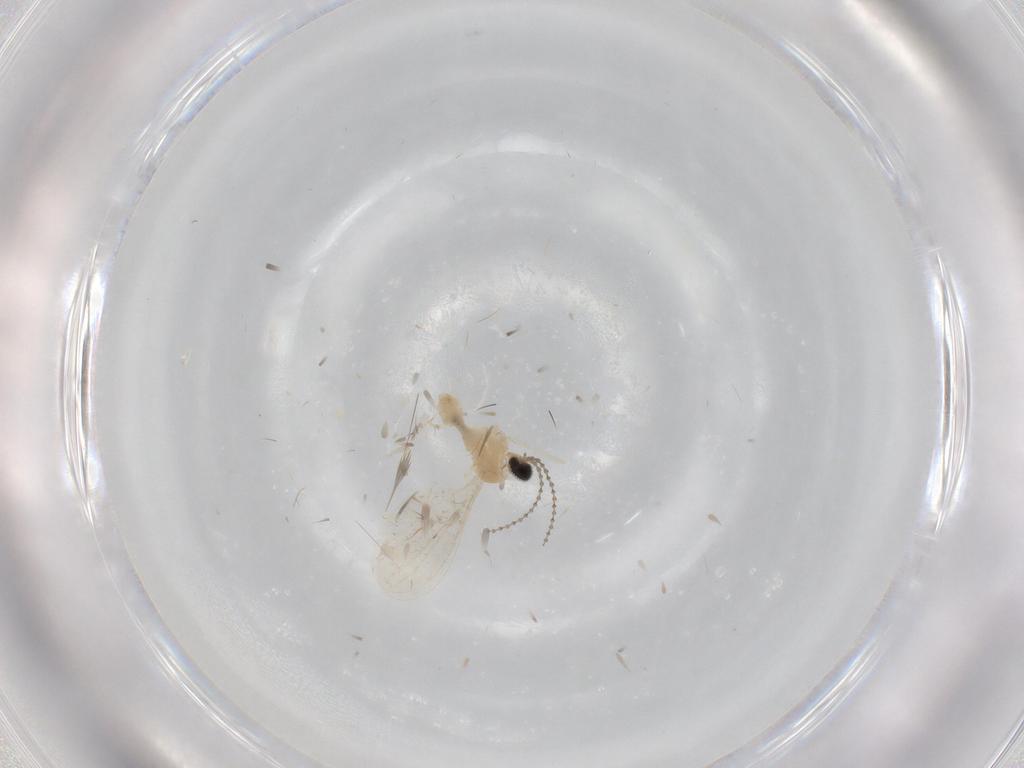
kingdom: Animalia
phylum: Arthropoda
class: Insecta
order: Diptera
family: Cecidomyiidae
